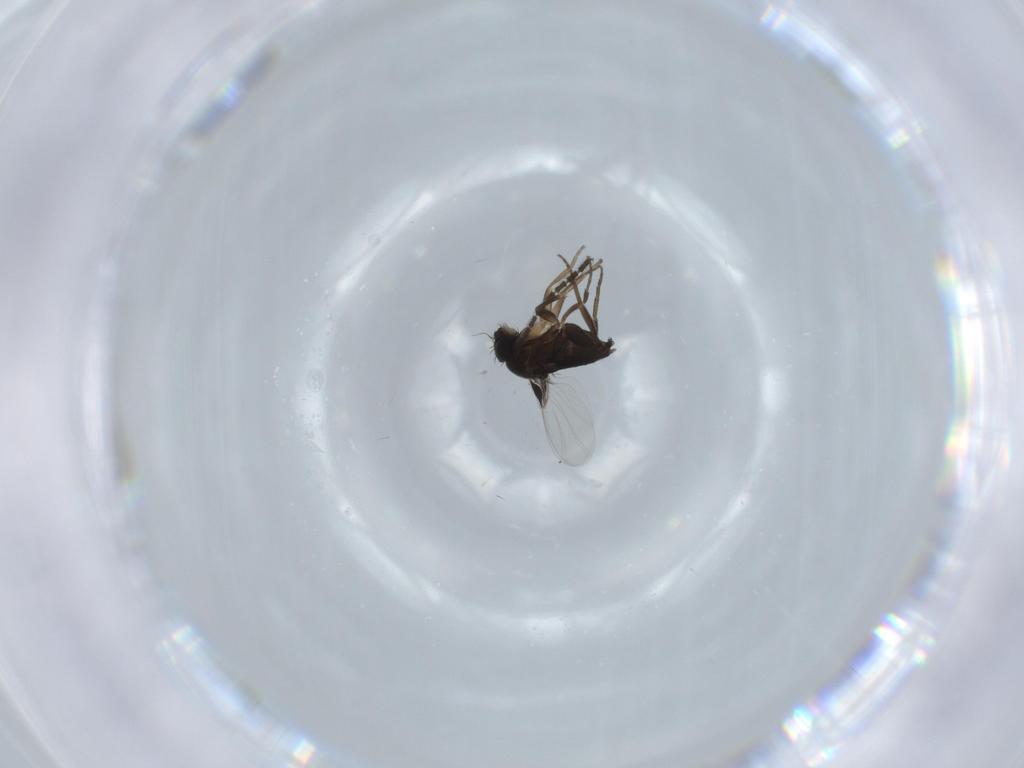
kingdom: Animalia
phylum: Arthropoda
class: Insecta
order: Diptera
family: Phoridae
